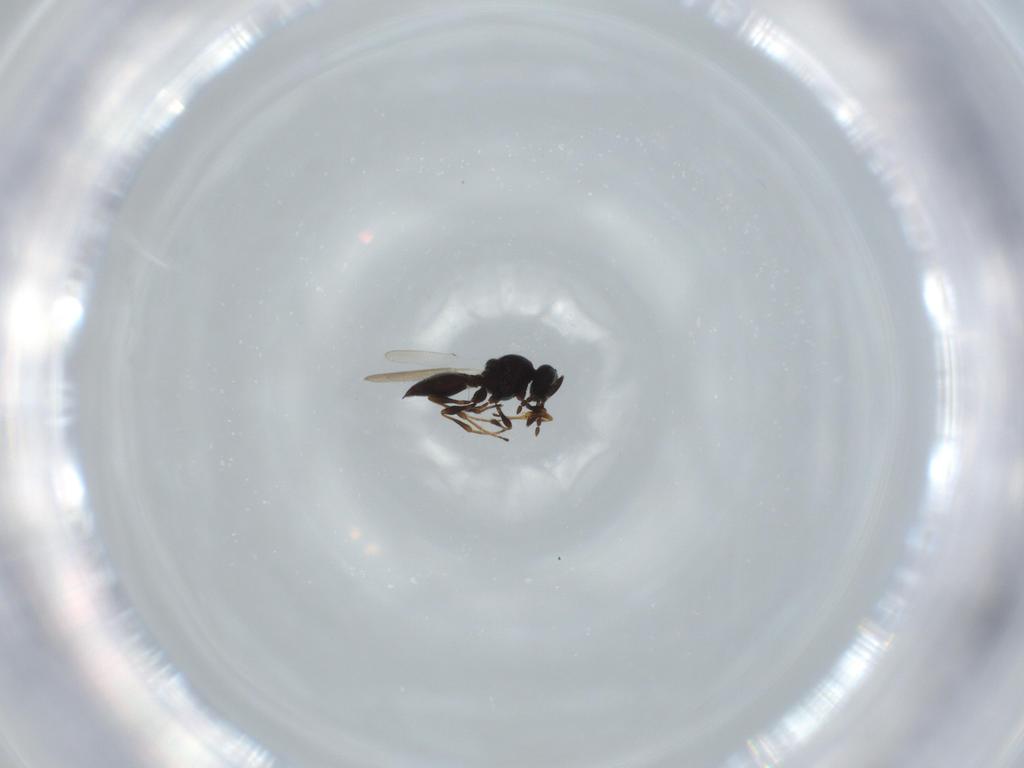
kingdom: Animalia
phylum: Arthropoda
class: Insecta
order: Hymenoptera
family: Platygastridae
